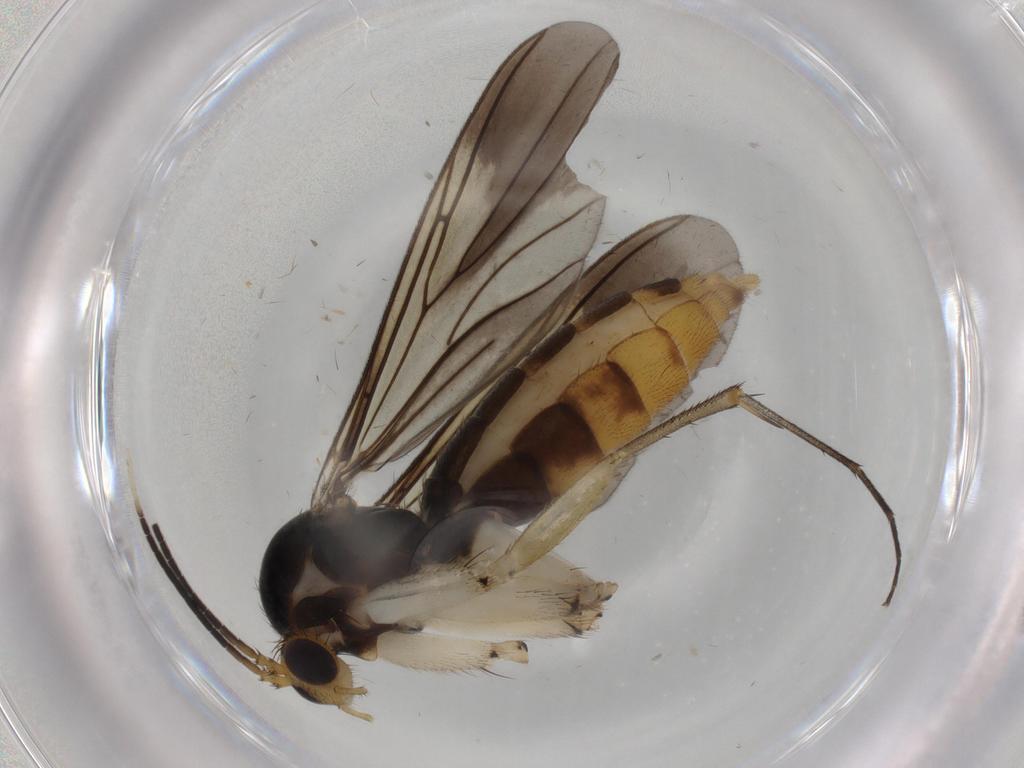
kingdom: Animalia
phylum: Arthropoda
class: Insecta
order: Diptera
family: Mycetophilidae
